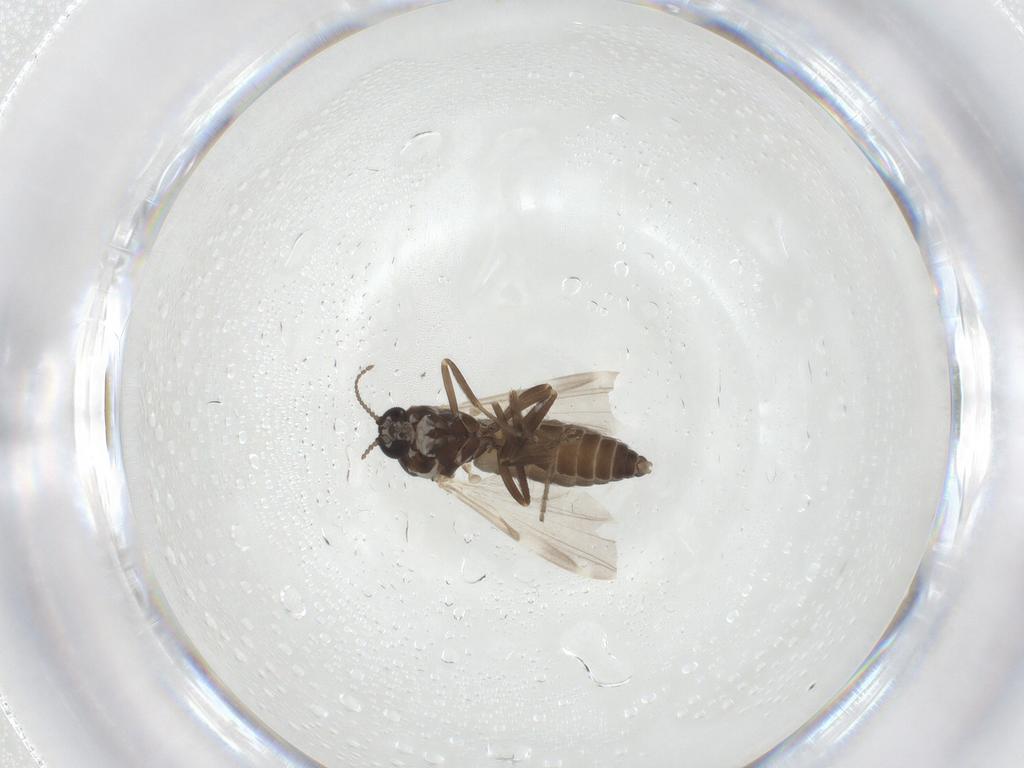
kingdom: Animalia
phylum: Arthropoda
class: Insecta
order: Diptera
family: Ceratopogonidae
